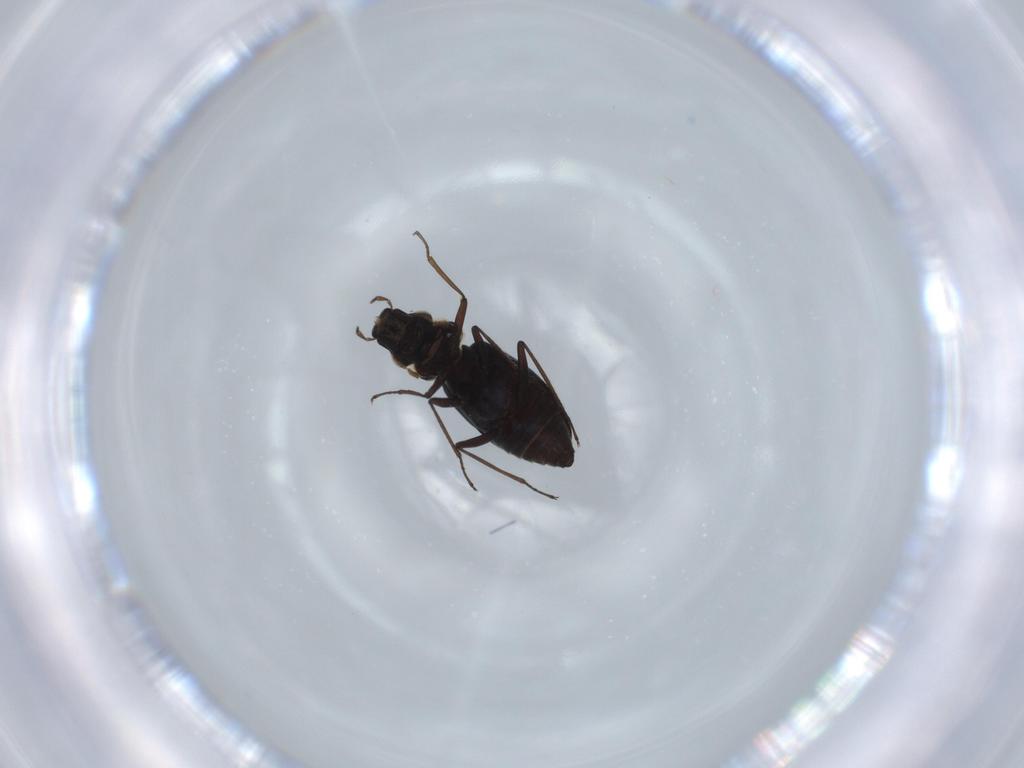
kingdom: Animalia
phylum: Arthropoda
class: Insecta
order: Coleoptera
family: Hydraenidae
